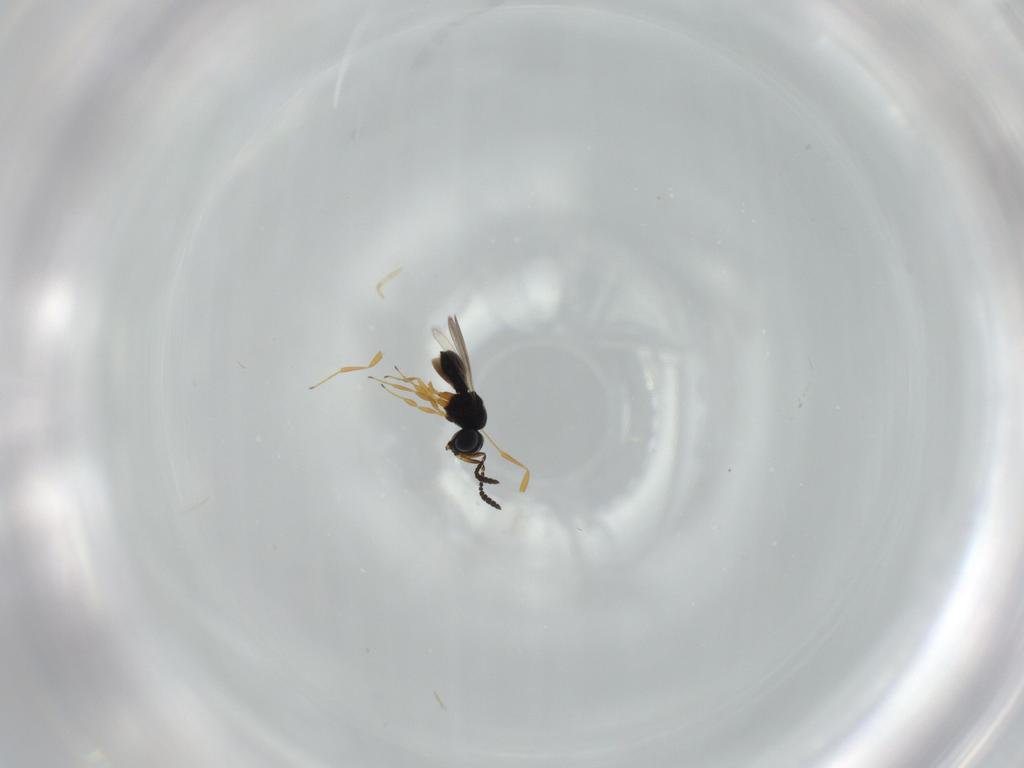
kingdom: Animalia
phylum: Arthropoda
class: Insecta
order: Hymenoptera
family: Scelionidae
